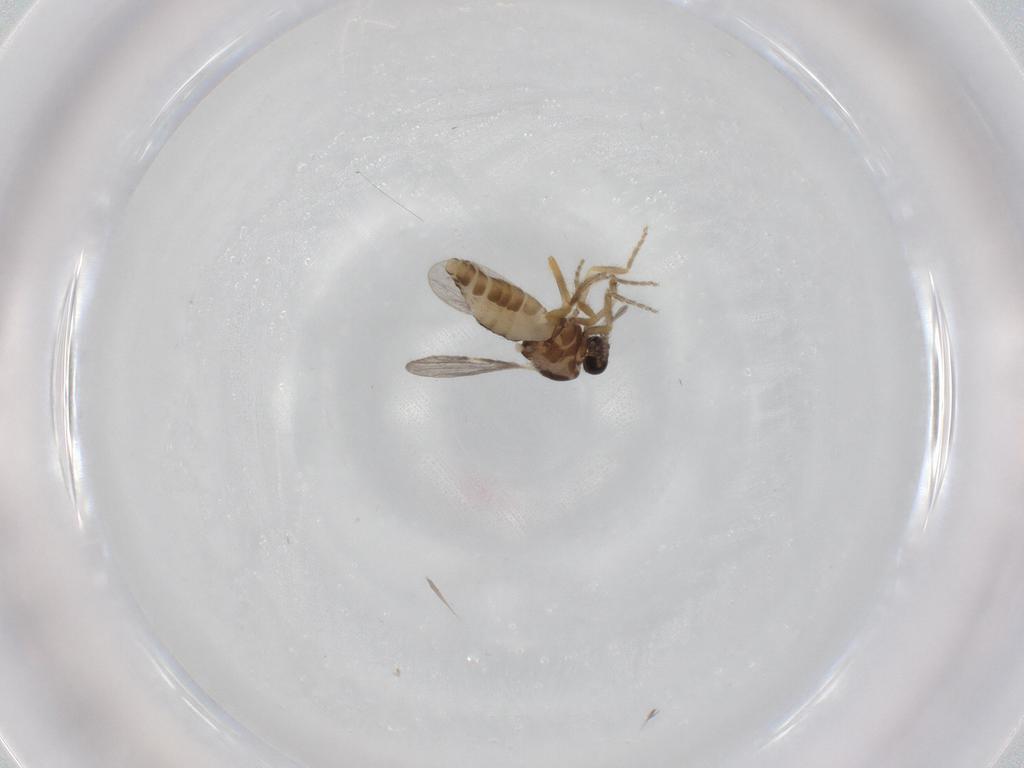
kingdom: Animalia
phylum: Arthropoda
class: Insecta
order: Diptera
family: Ceratopogonidae
